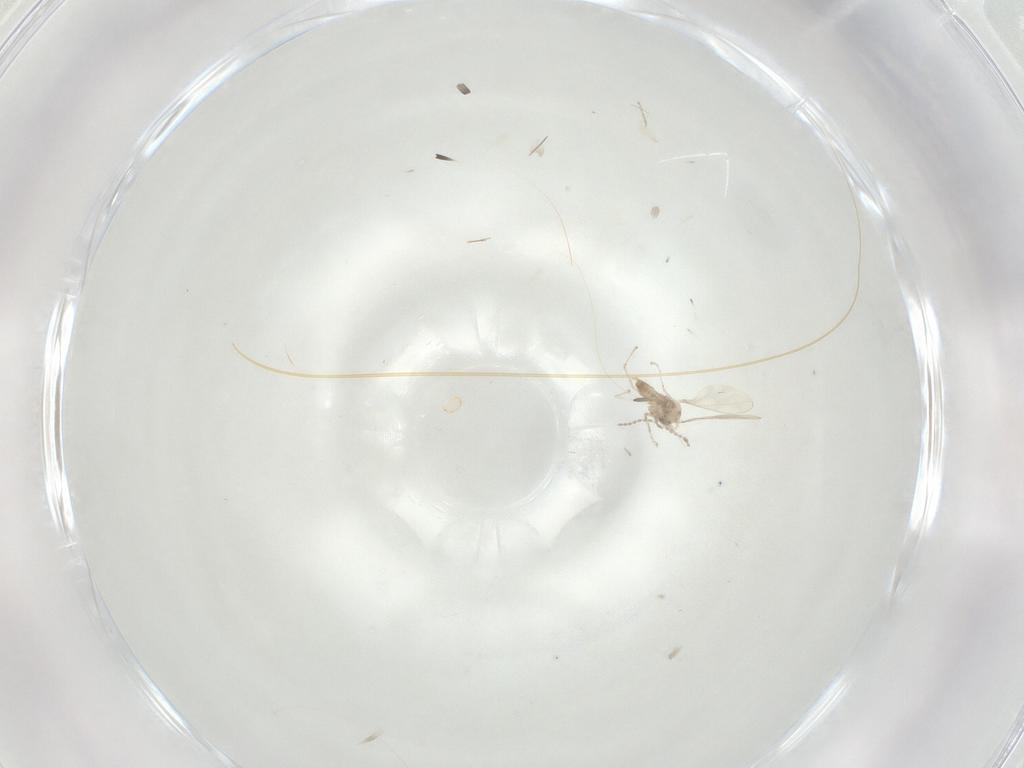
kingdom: Animalia
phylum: Arthropoda
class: Insecta
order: Diptera
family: Cecidomyiidae
